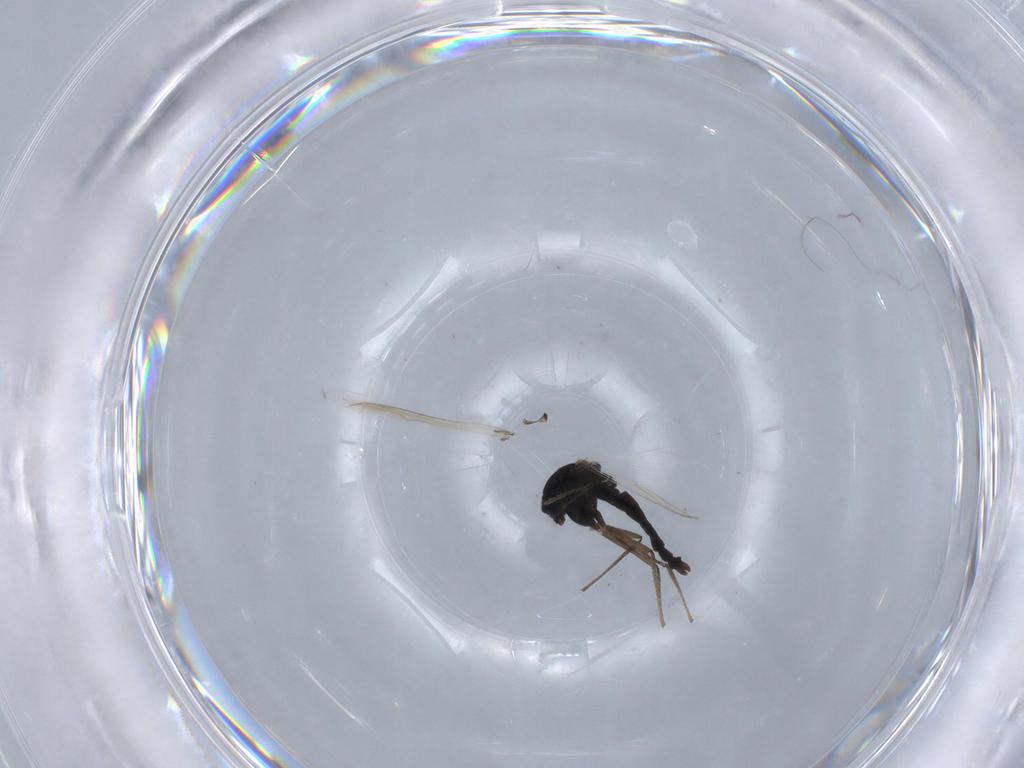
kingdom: Animalia
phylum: Arthropoda
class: Insecta
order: Diptera
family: Chironomidae
